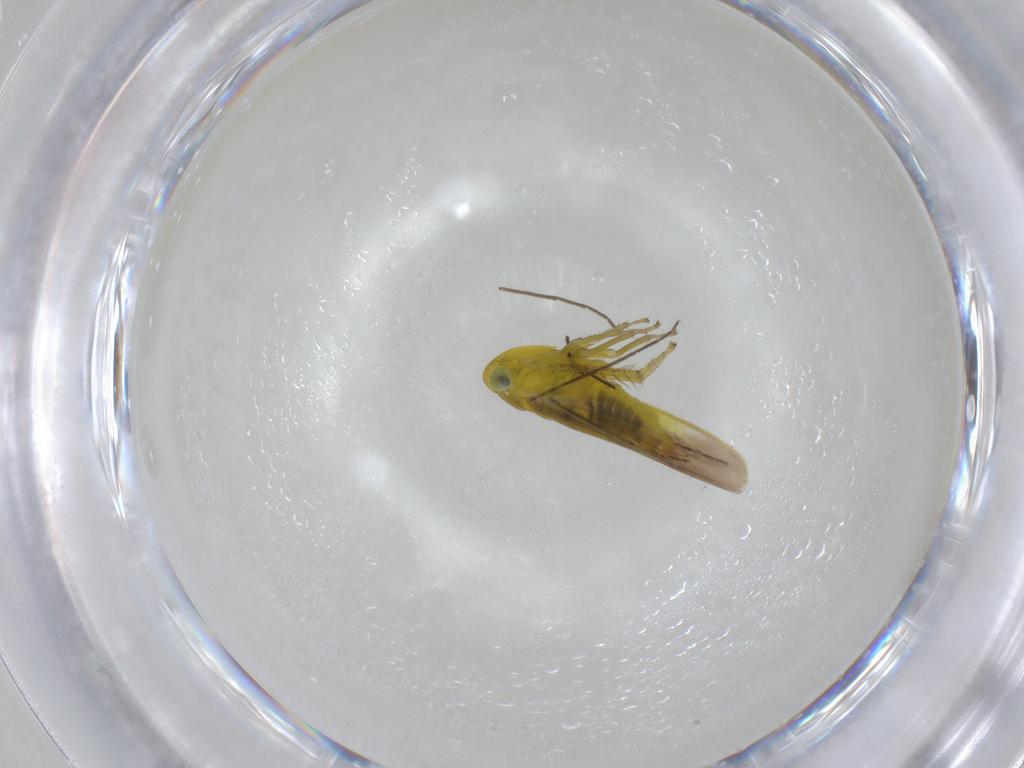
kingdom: Animalia
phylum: Arthropoda
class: Insecta
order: Hemiptera
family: Cicadellidae
